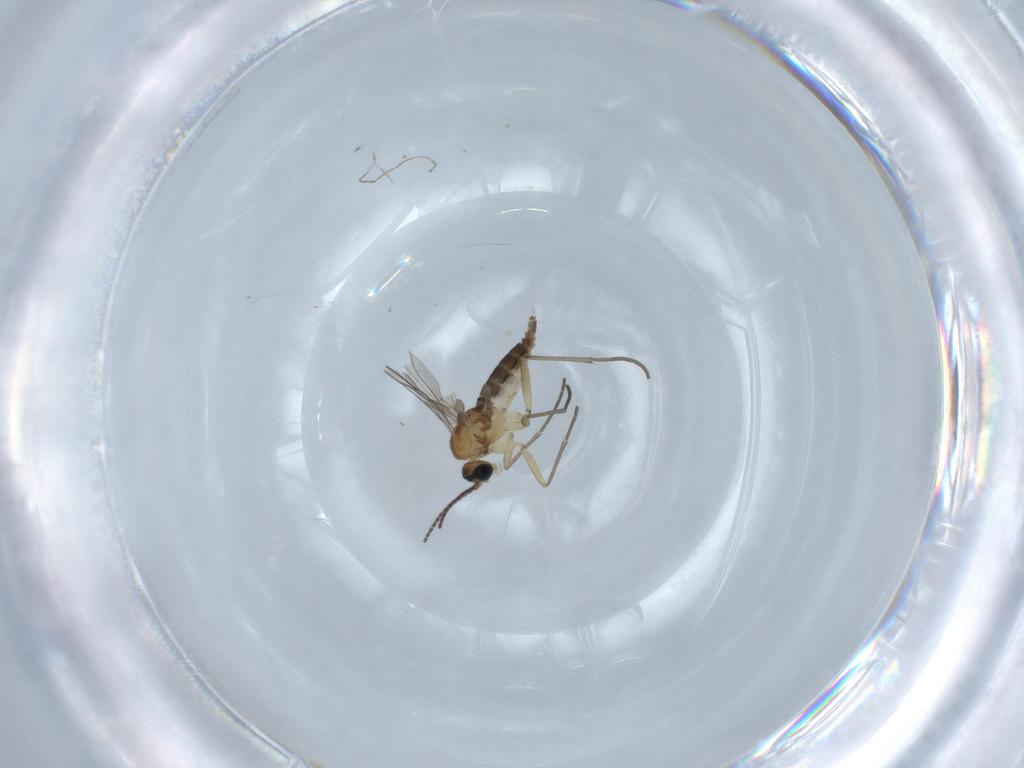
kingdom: Animalia
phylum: Arthropoda
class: Insecta
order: Diptera
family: Sciaridae
